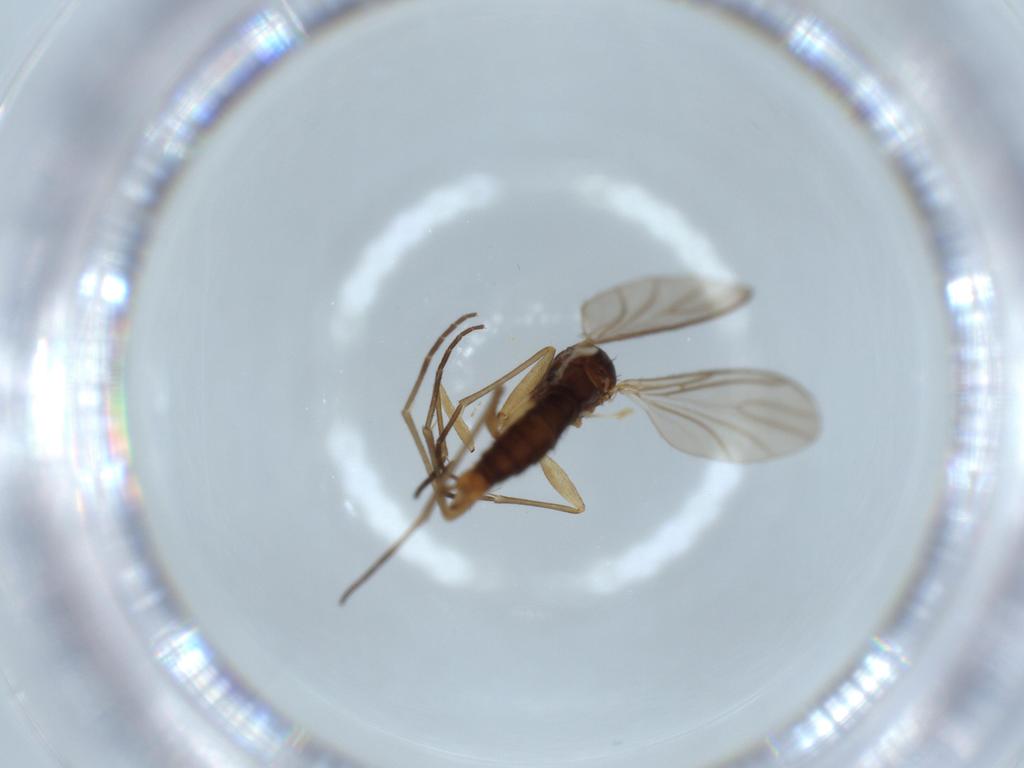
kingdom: Animalia
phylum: Arthropoda
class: Insecta
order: Diptera
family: Sciaridae
